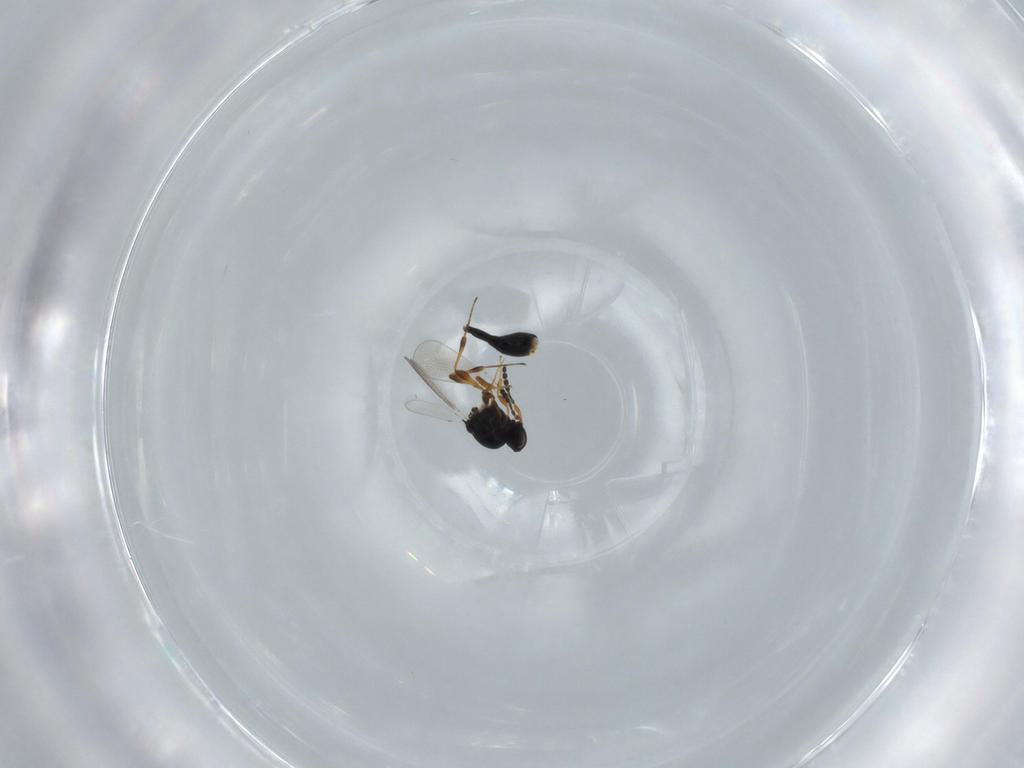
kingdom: Animalia
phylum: Arthropoda
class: Insecta
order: Hymenoptera
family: Platygastridae
